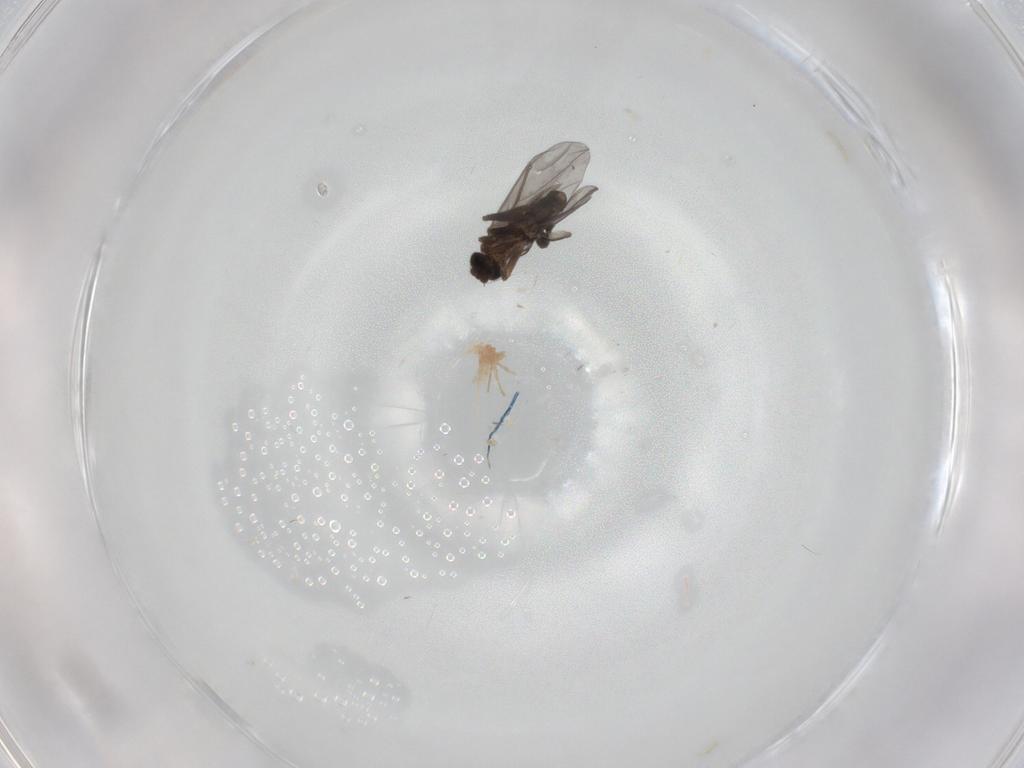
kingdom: Animalia
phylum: Arthropoda
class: Insecta
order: Diptera
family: Phoridae
